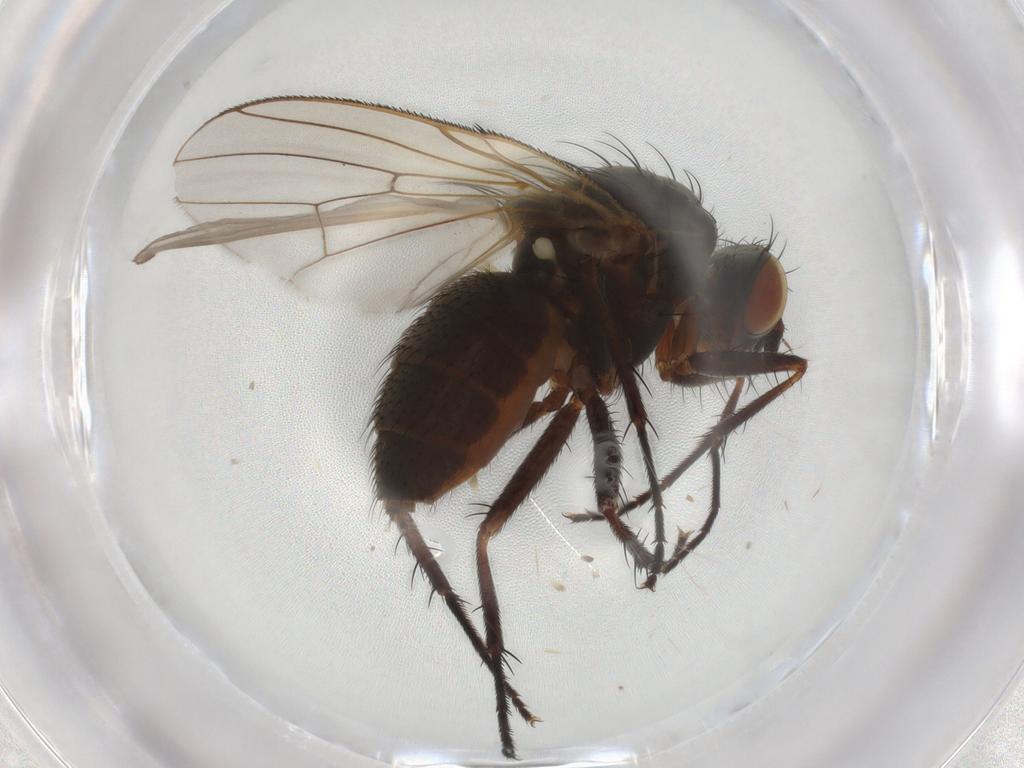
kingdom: Animalia
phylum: Arthropoda
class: Insecta
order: Diptera
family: Anthomyiidae
